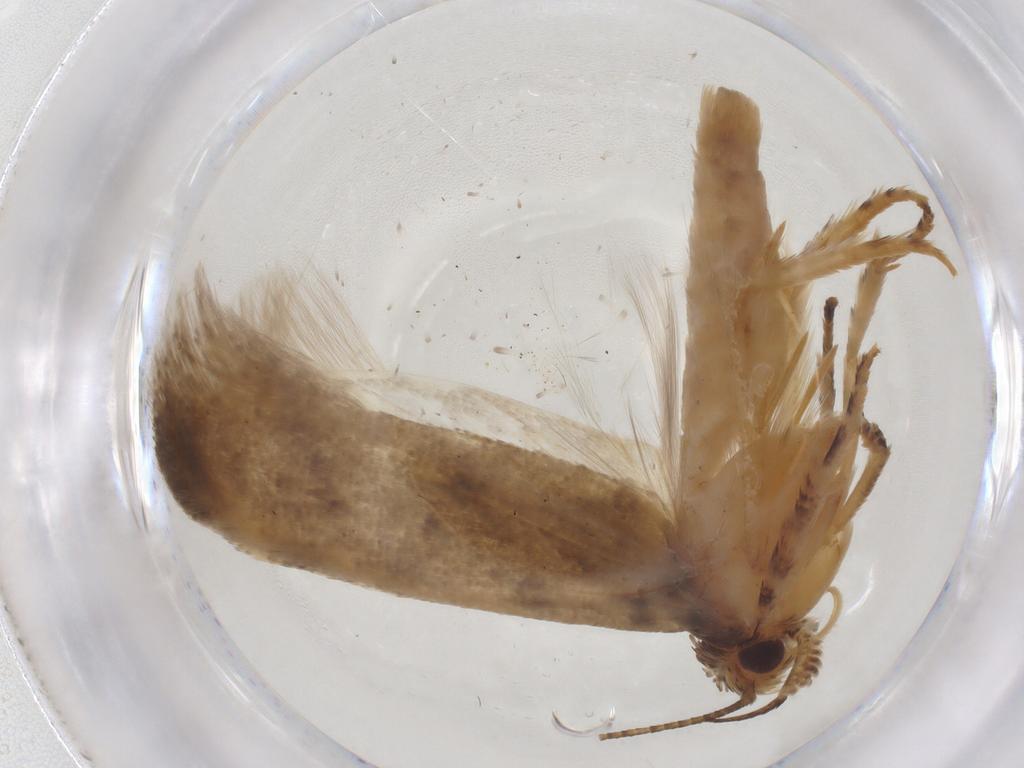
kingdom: Animalia
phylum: Arthropoda
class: Insecta
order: Lepidoptera
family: Gelechiidae
